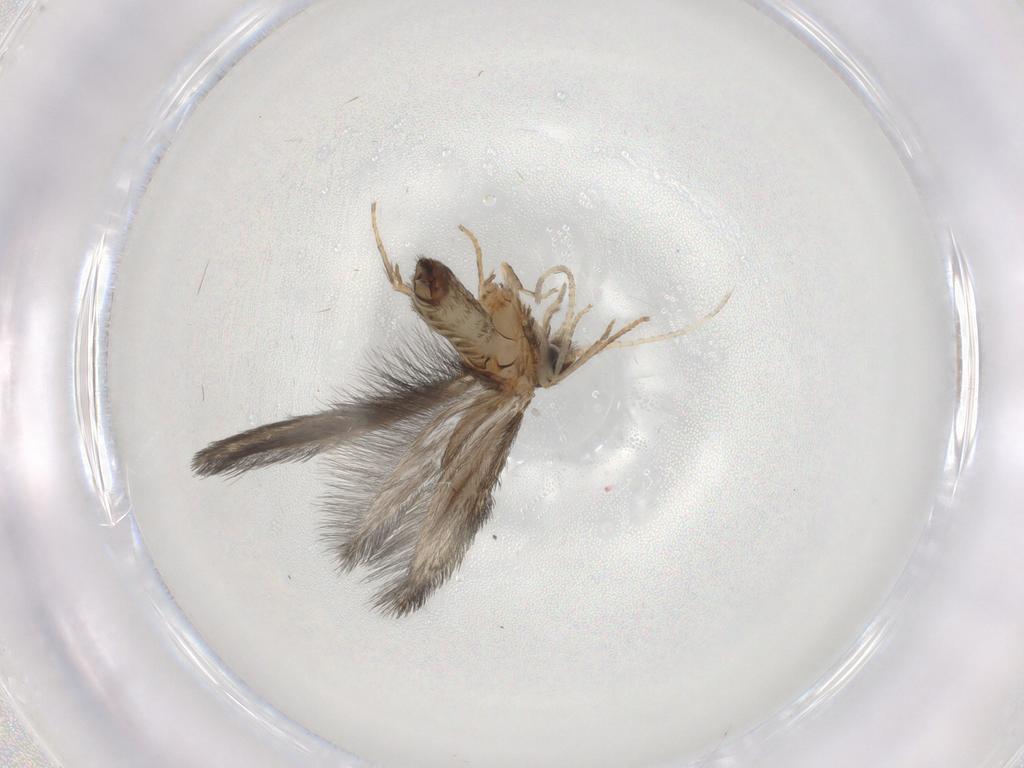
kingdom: Animalia
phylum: Arthropoda
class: Insecta
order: Trichoptera
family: Hydroptilidae
